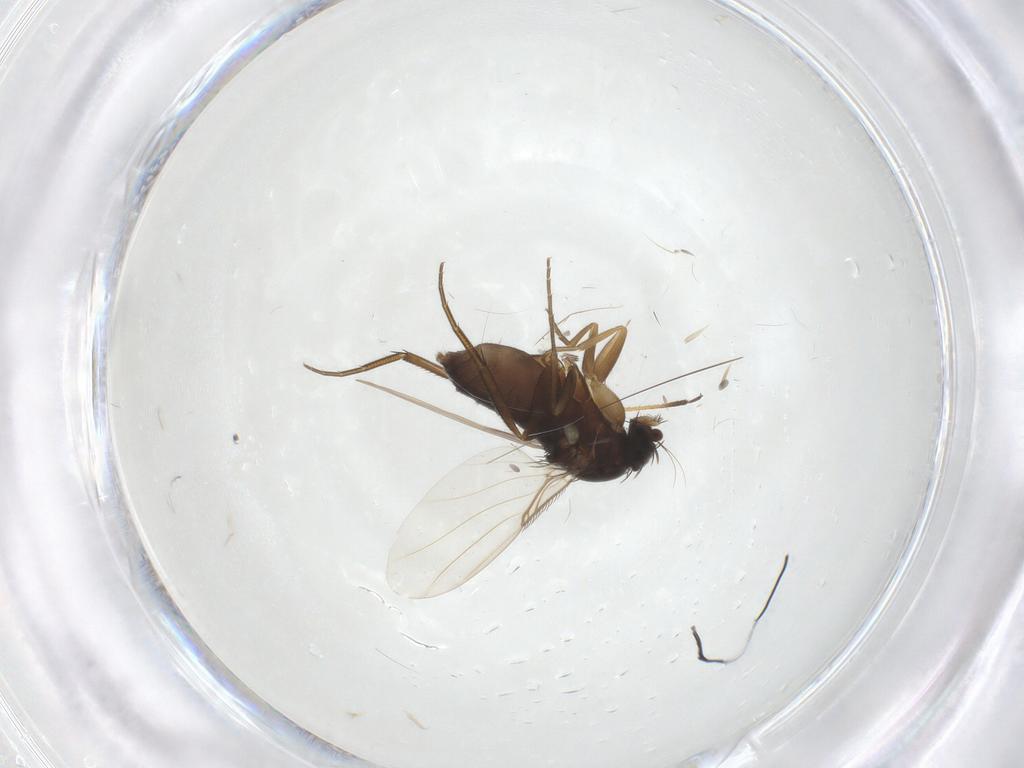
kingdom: Animalia
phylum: Arthropoda
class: Insecta
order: Diptera
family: Phoridae
